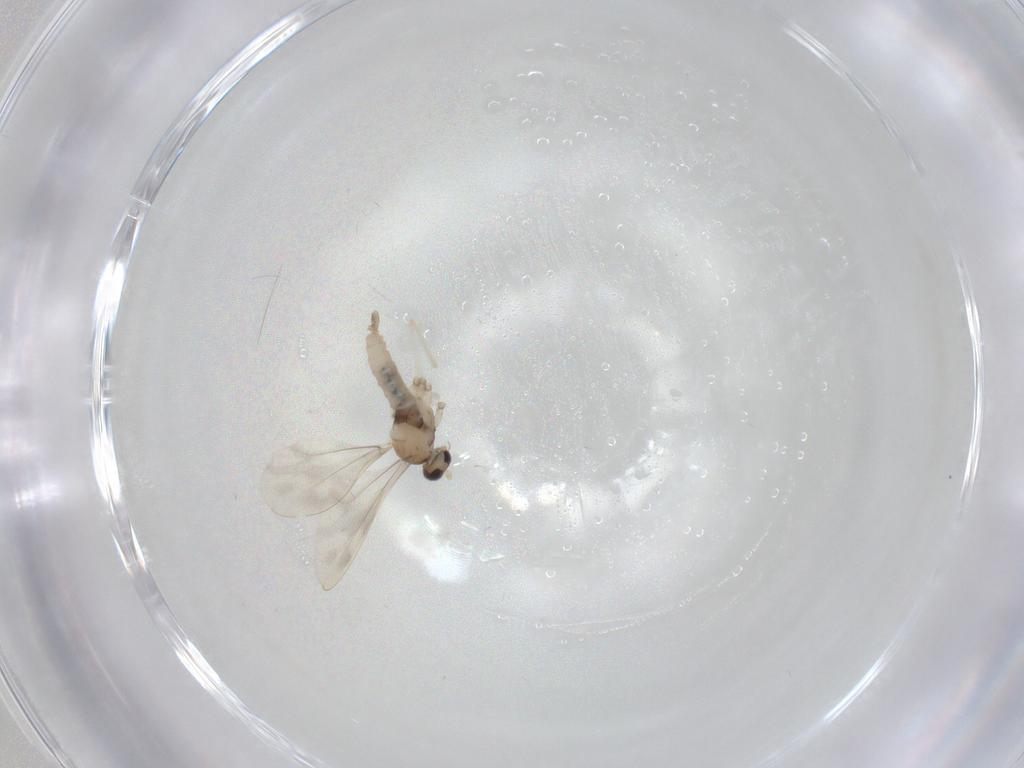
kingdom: Animalia
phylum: Arthropoda
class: Insecta
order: Diptera
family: Cecidomyiidae
